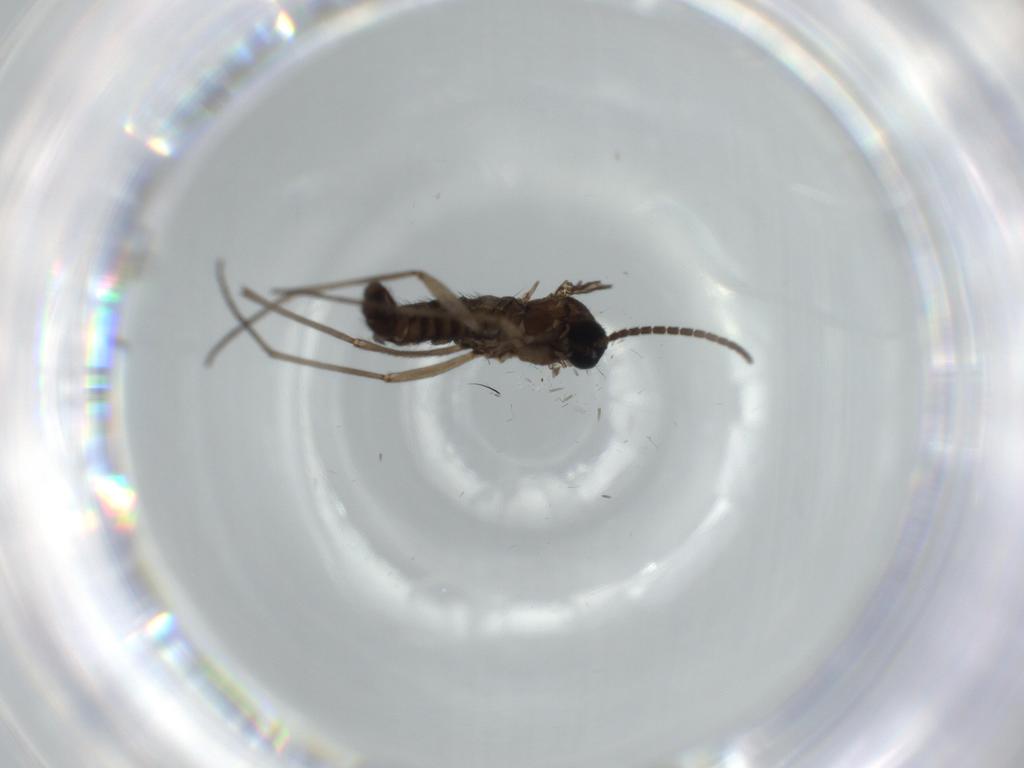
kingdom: Animalia
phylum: Arthropoda
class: Insecta
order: Diptera
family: Sciaridae
